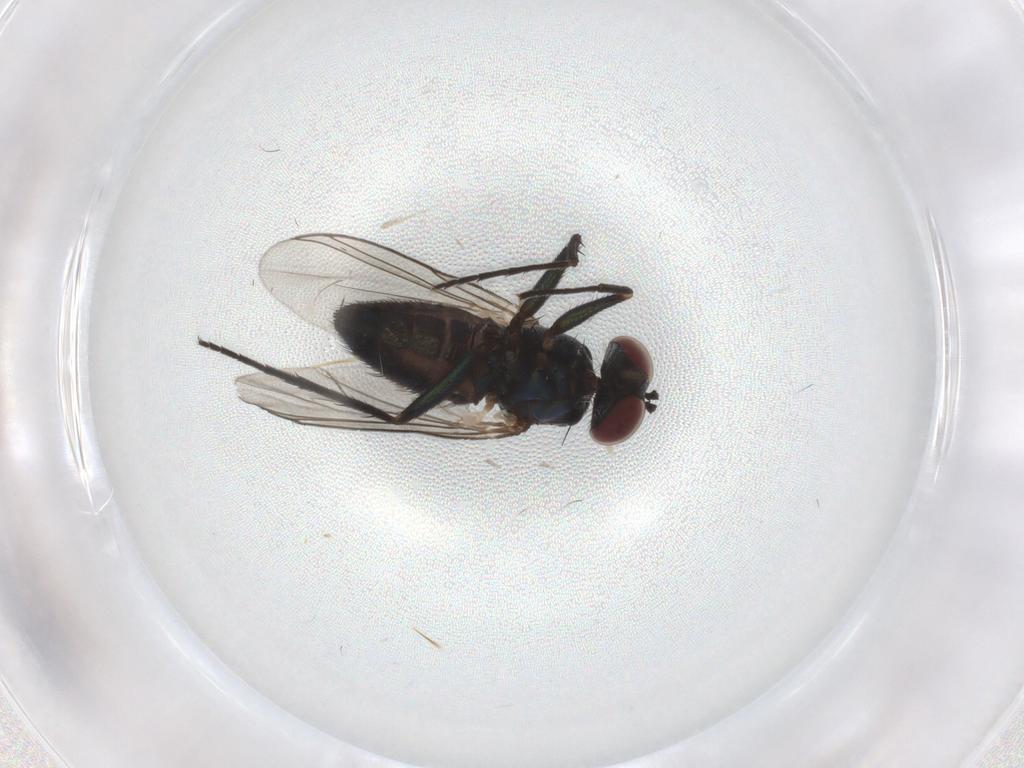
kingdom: Animalia
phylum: Arthropoda
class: Insecta
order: Diptera
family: Dolichopodidae
